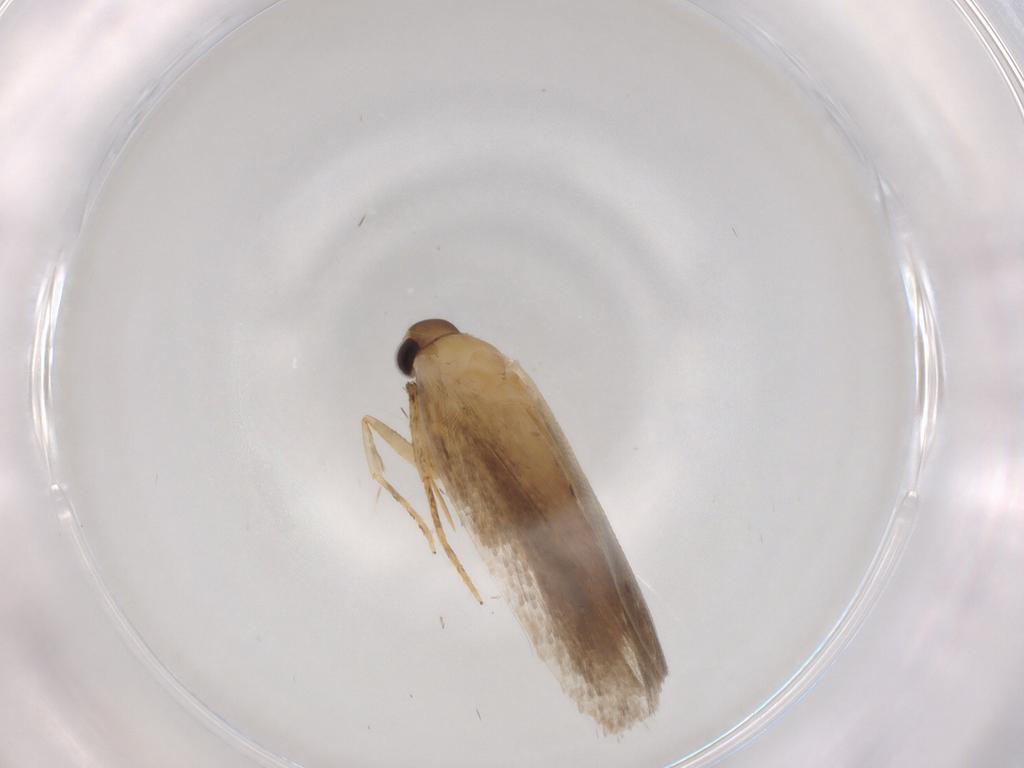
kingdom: Animalia
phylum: Arthropoda
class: Insecta
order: Lepidoptera
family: Autostichidae
